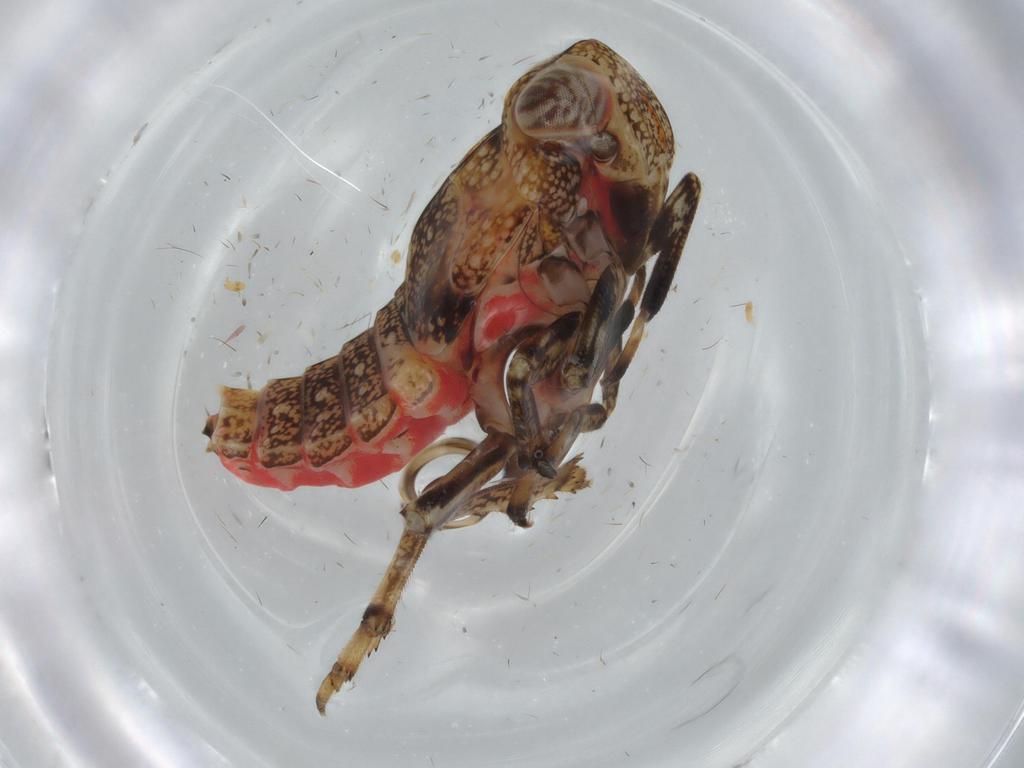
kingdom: Animalia
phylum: Arthropoda
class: Insecta
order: Hemiptera
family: Issidae
